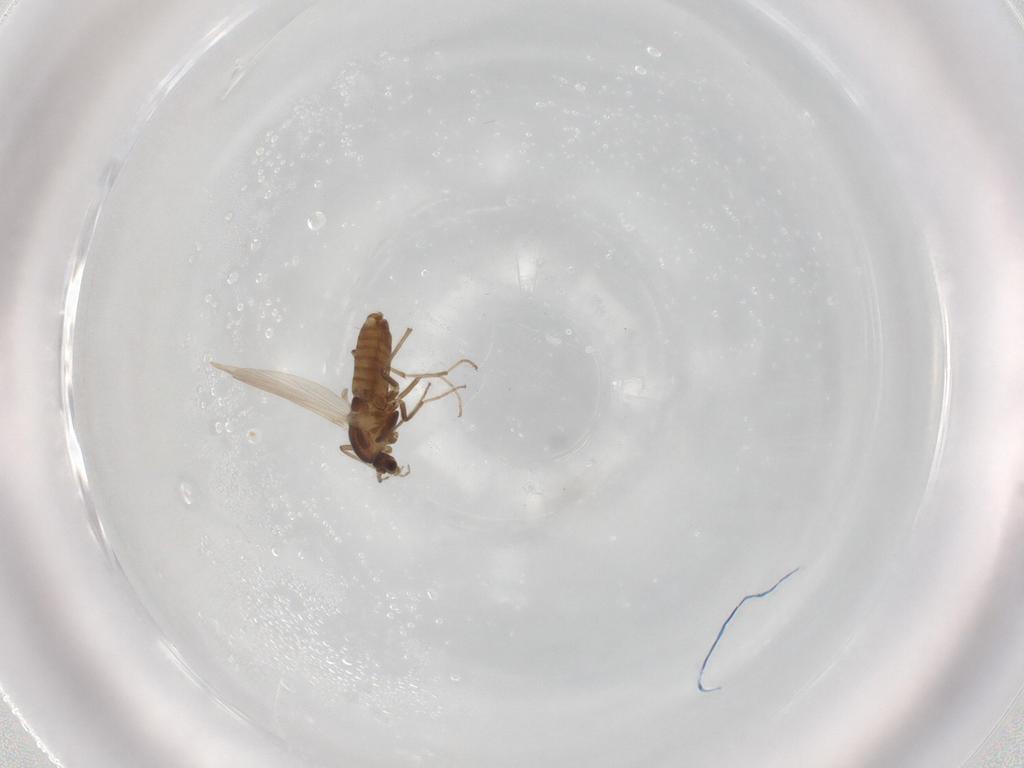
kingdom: Animalia
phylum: Arthropoda
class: Insecta
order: Diptera
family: Chironomidae
